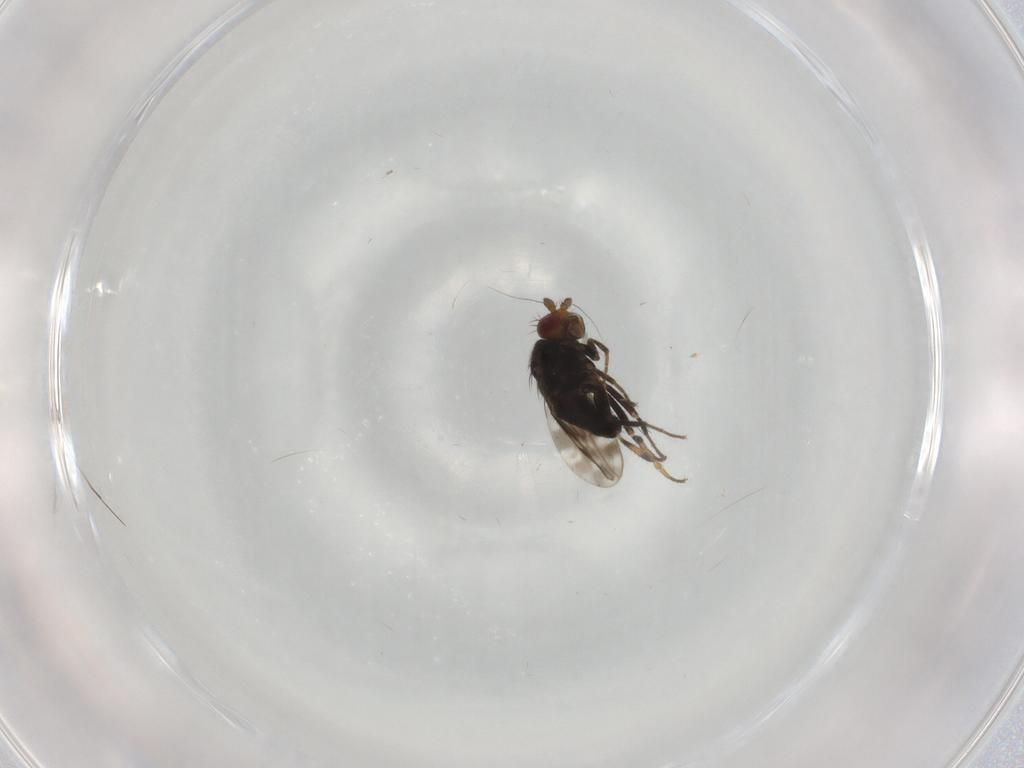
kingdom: Animalia
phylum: Arthropoda
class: Insecta
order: Diptera
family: Sphaeroceridae
